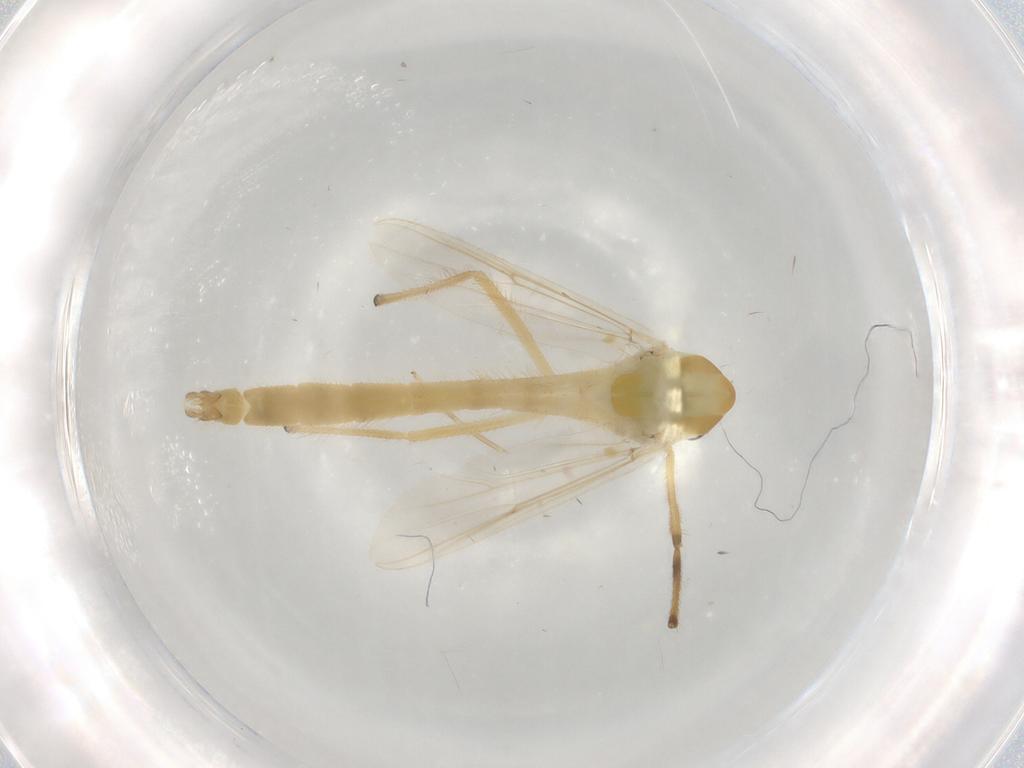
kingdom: Animalia
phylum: Arthropoda
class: Insecta
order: Diptera
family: Chironomidae
